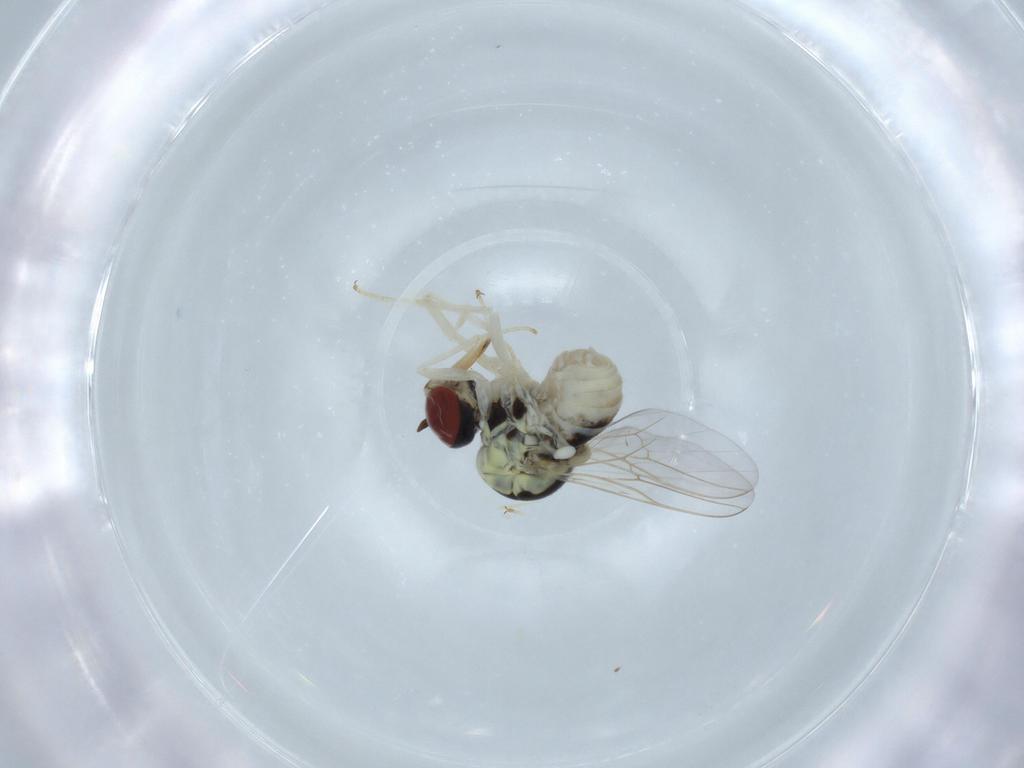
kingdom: Animalia
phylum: Arthropoda
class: Insecta
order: Diptera
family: Bombyliidae
